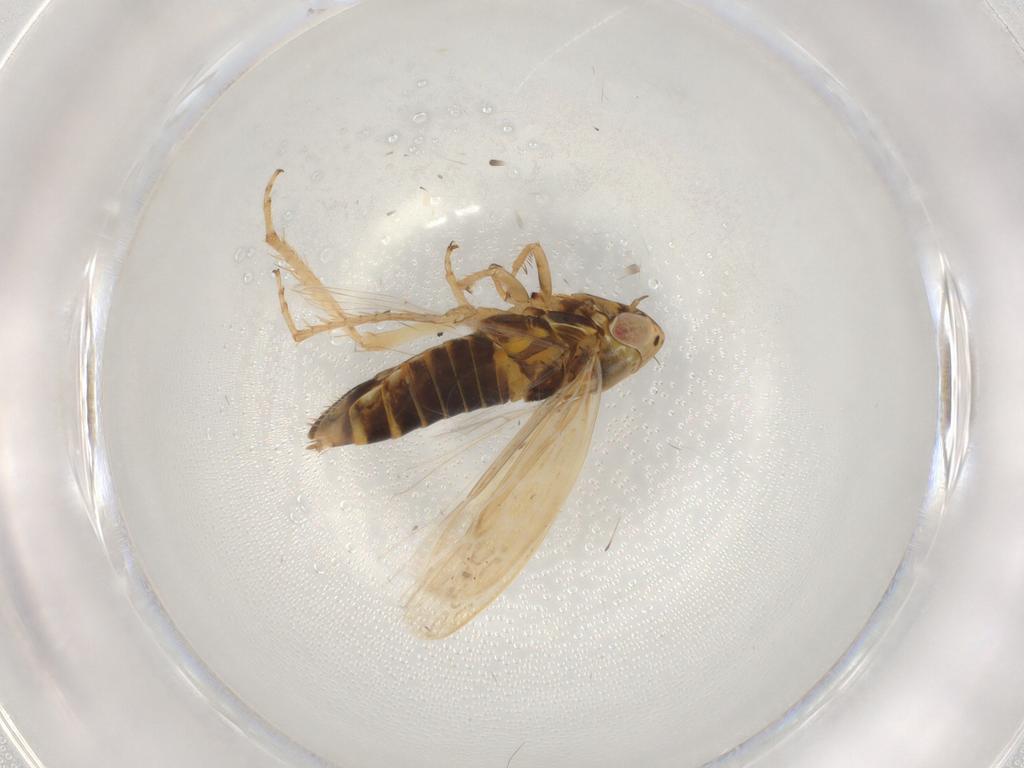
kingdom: Animalia
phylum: Arthropoda
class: Insecta
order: Hemiptera
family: Cicadellidae
